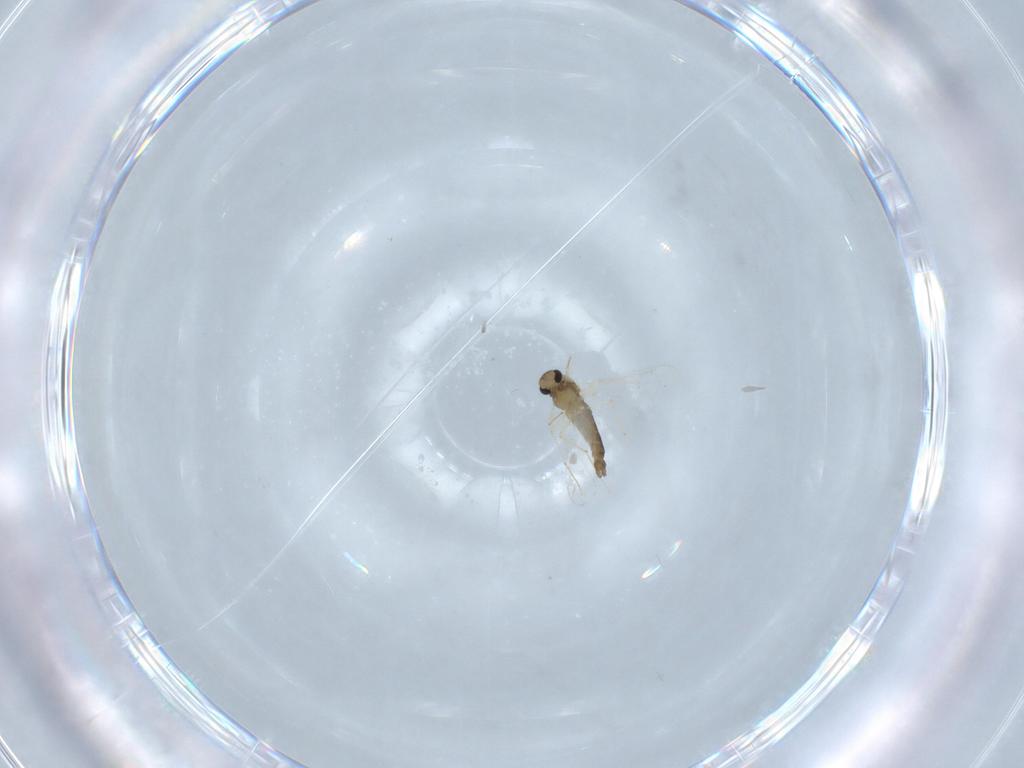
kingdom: Animalia
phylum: Arthropoda
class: Insecta
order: Diptera
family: Chironomidae
